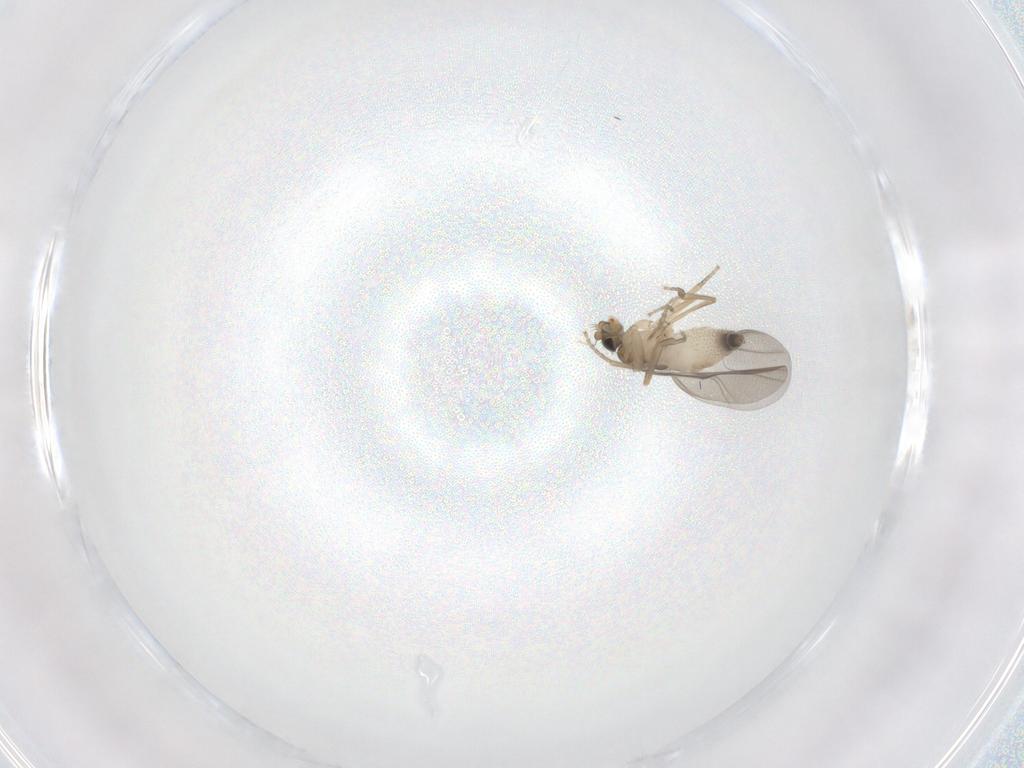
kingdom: Animalia
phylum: Arthropoda
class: Insecta
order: Diptera
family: Phoridae
